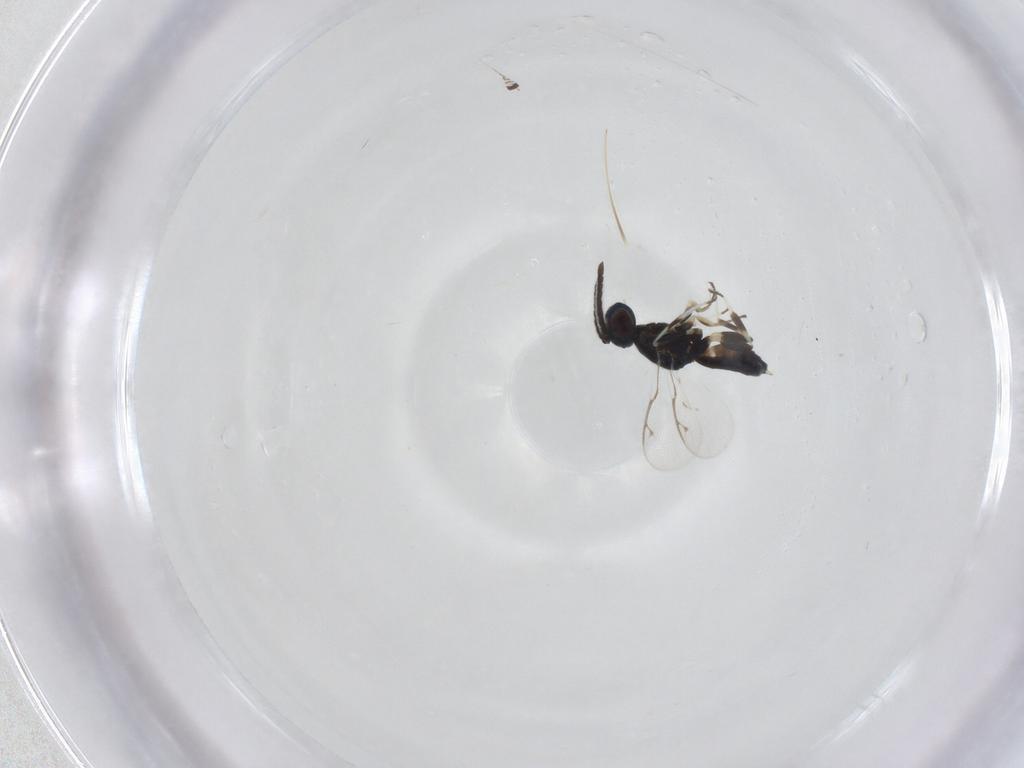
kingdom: Animalia
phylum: Arthropoda
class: Insecta
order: Hymenoptera
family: Eupelmidae
